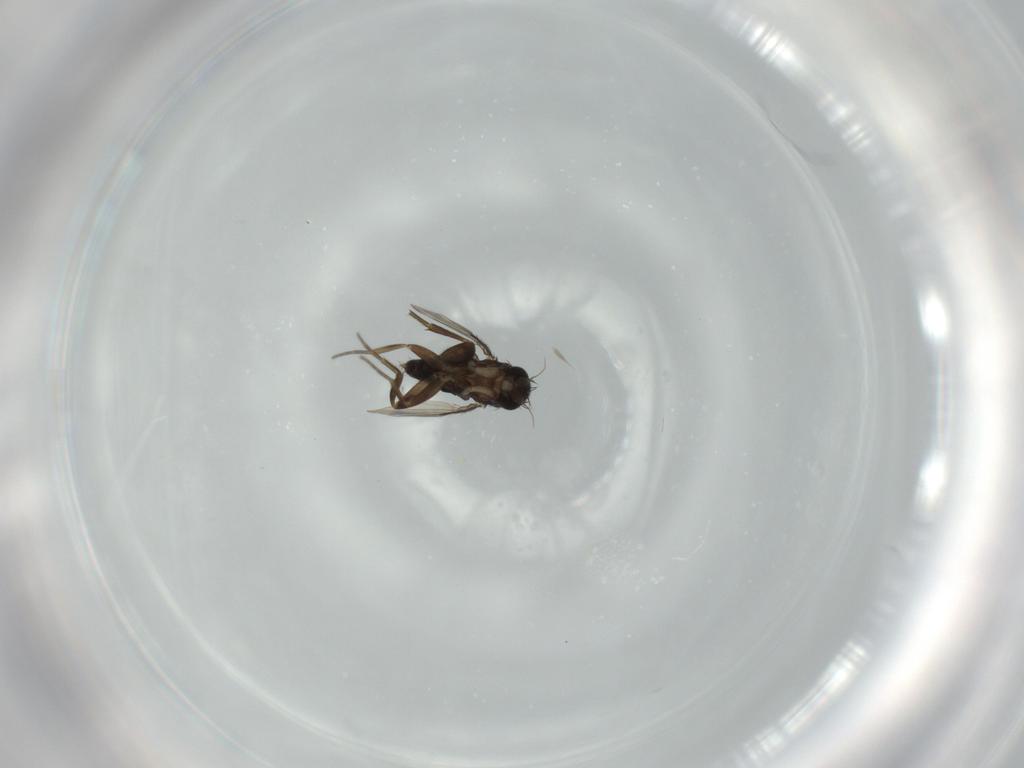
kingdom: Animalia
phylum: Arthropoda
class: Insecta
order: Diptera
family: Phoridae
